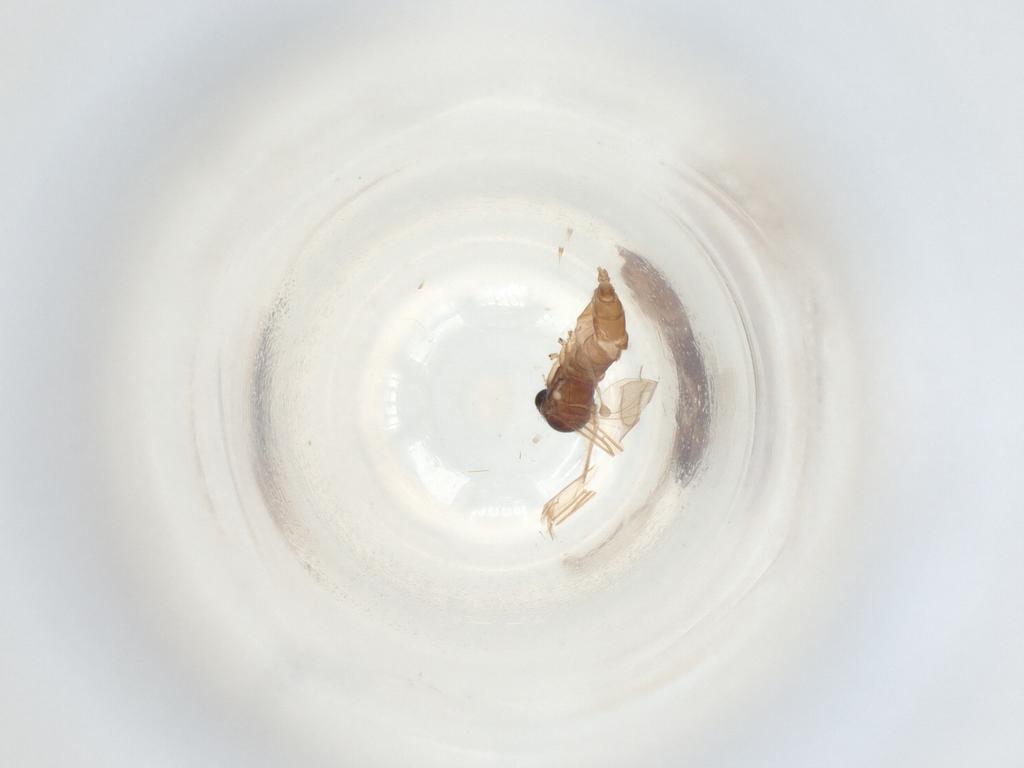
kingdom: Animalia
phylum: Arthropoda
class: Insecta
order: Diptera
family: Sciaridae
